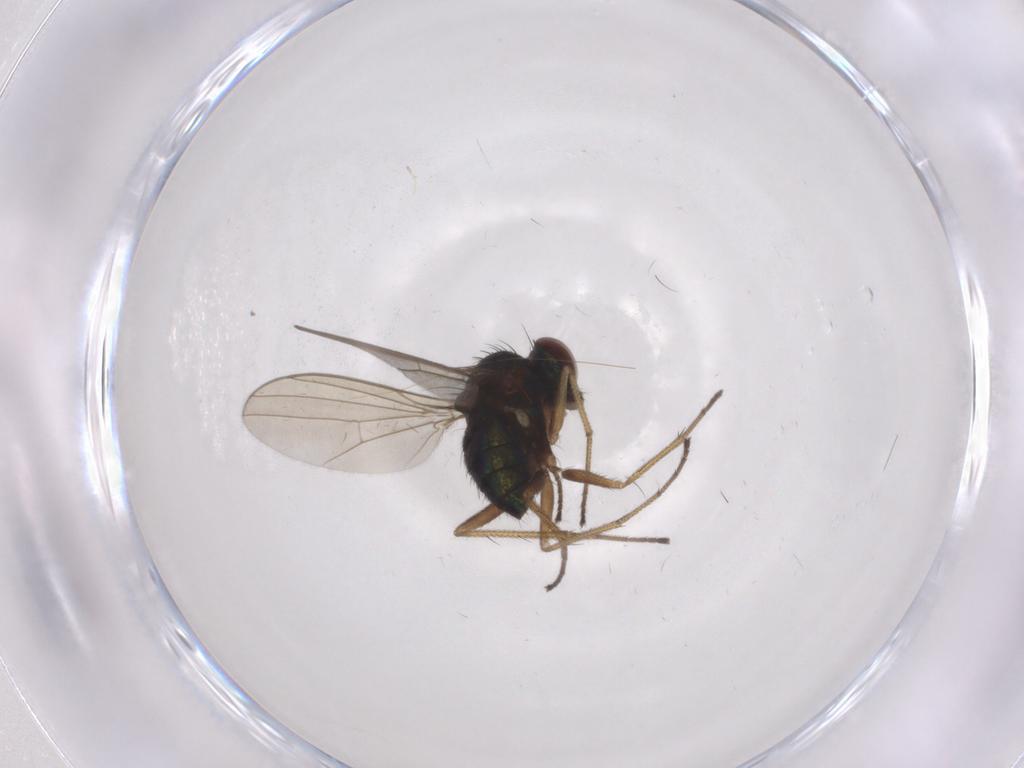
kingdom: Animalia
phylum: Arthropoda
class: Insecta
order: Diptera
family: Dolichopodidae
